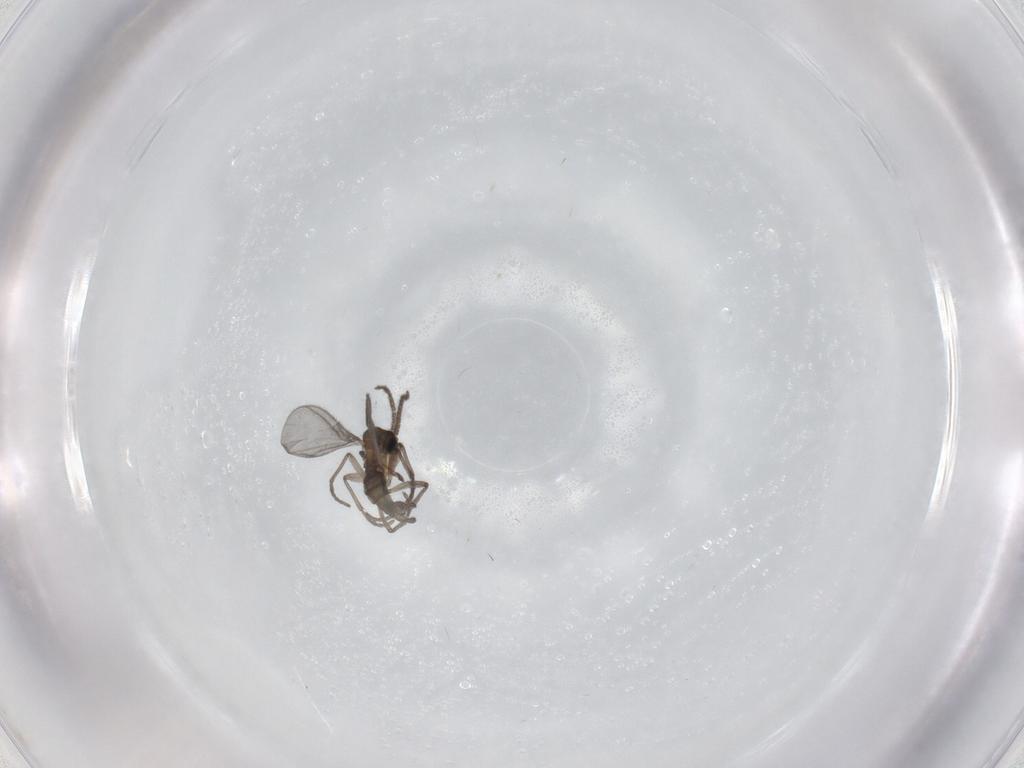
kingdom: Animalia
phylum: Arthropoda
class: Insecta
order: Diptera
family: Sciaridae
